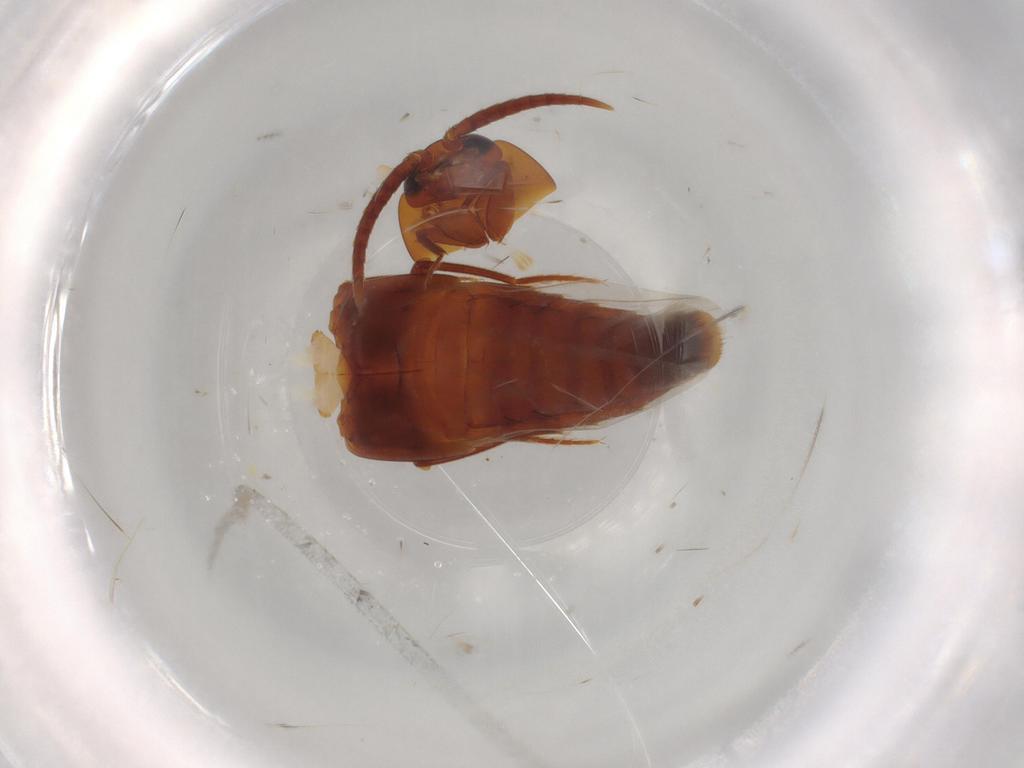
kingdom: Animalia
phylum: Arthropoda
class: Insecta
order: Coleoptera
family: Staphylinidae
